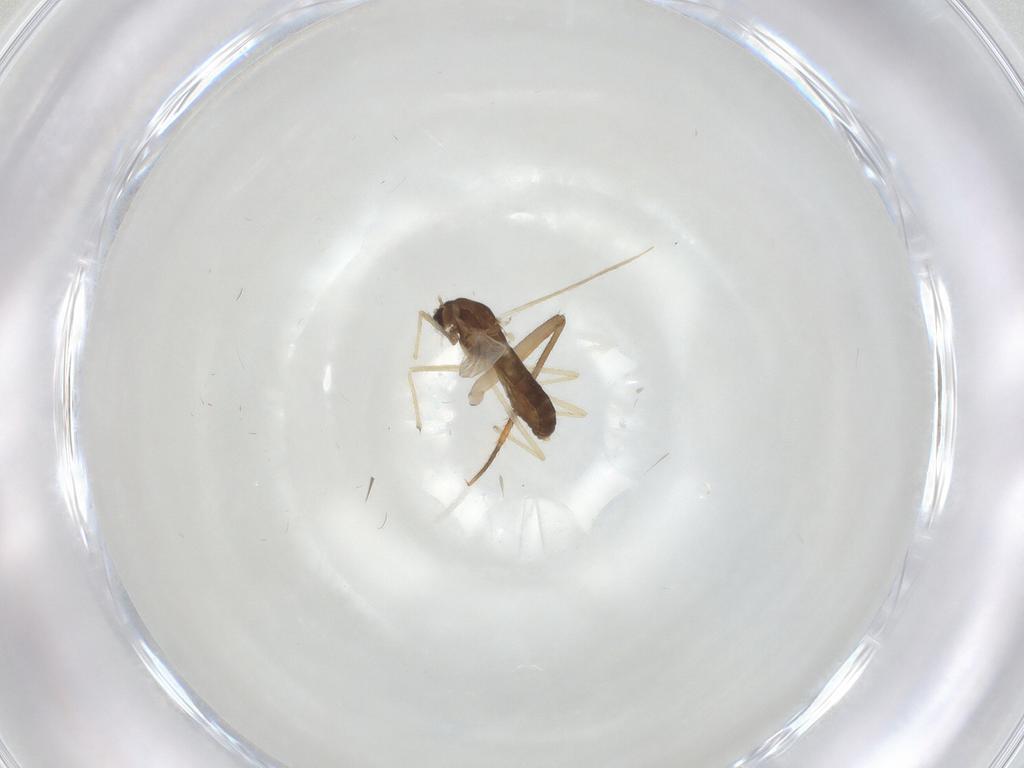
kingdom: Animalia
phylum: Arthropoda
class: Insecta
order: Diptera
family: Chironomidae
